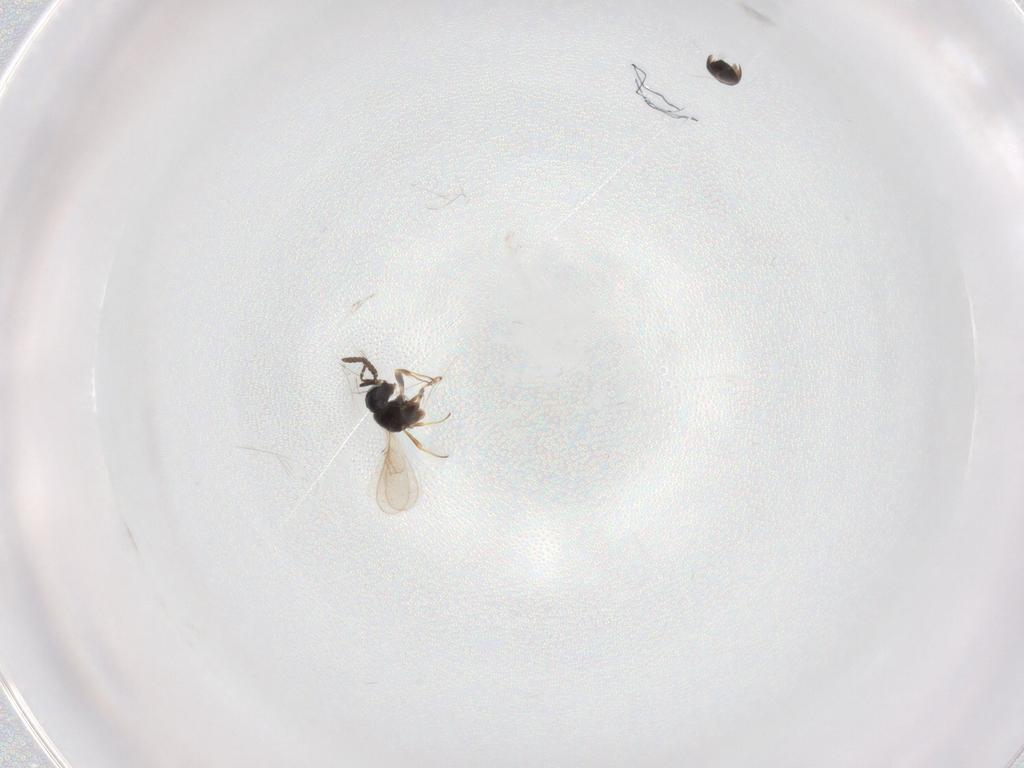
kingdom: Animalia
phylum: Arthropoda
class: Insecta
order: Hymenoptera
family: Scelionidae
